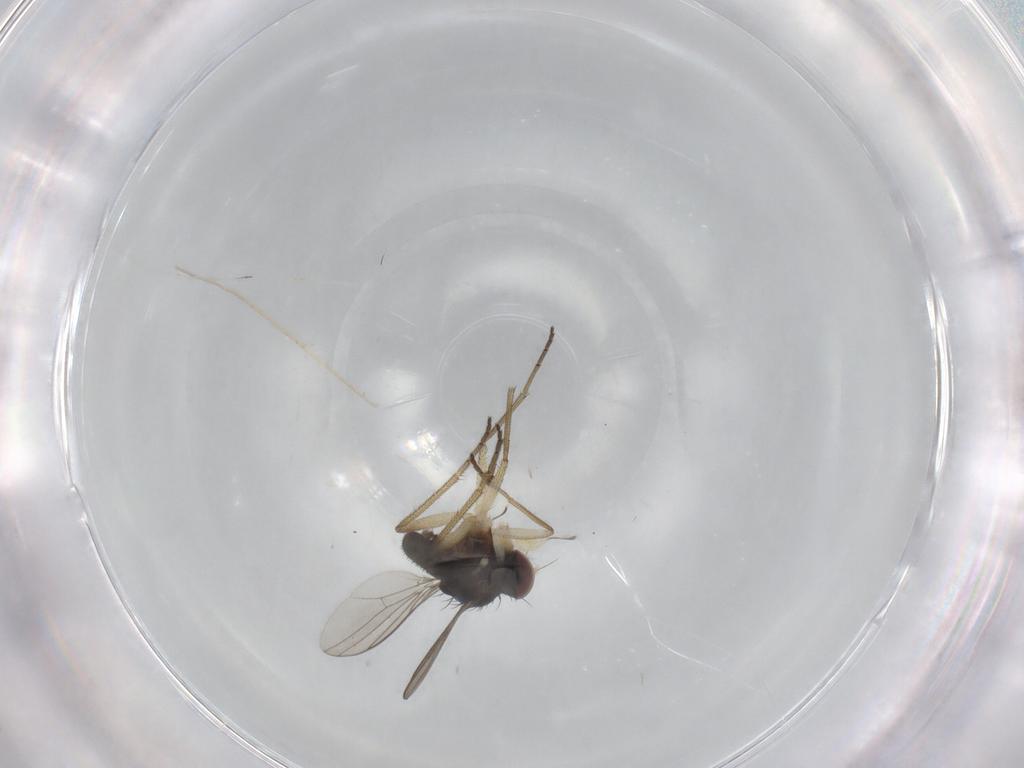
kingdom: Animalia
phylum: Arthropoda
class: Insecta
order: Diptera
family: Dolichopodidae
